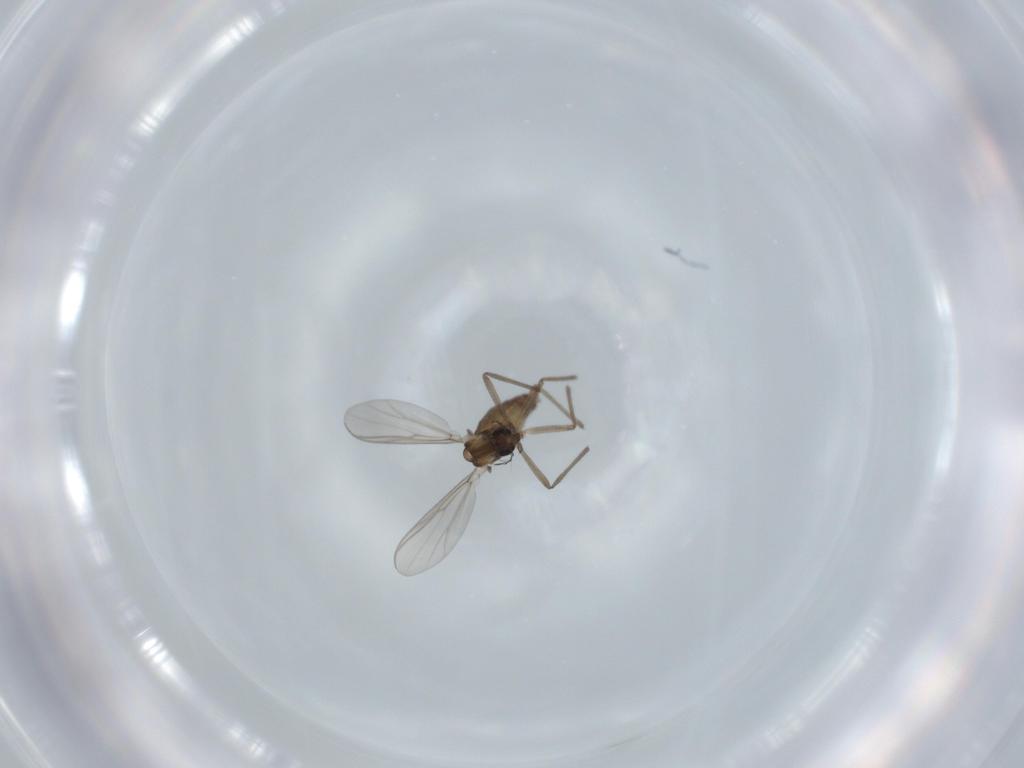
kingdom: Animalia
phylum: Arthropoda
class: Insecta
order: Diptera
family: Chironomidae
